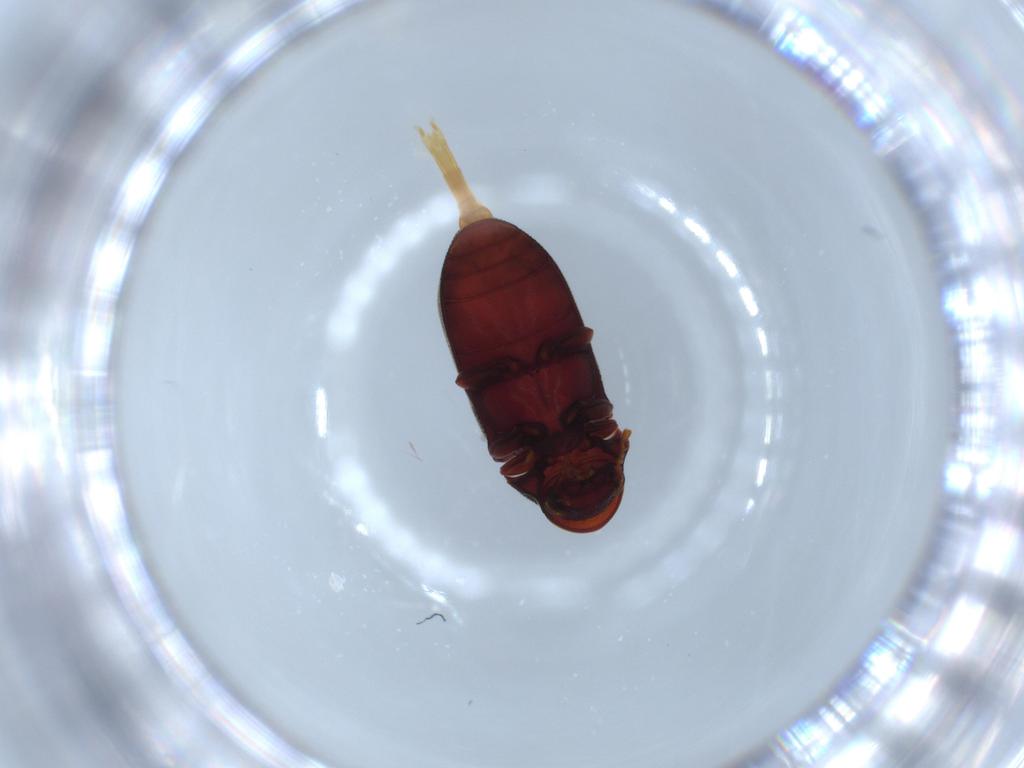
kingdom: Animalia
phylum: Arthropoda
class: Insecta
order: Coleoptera
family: Ptinidae
